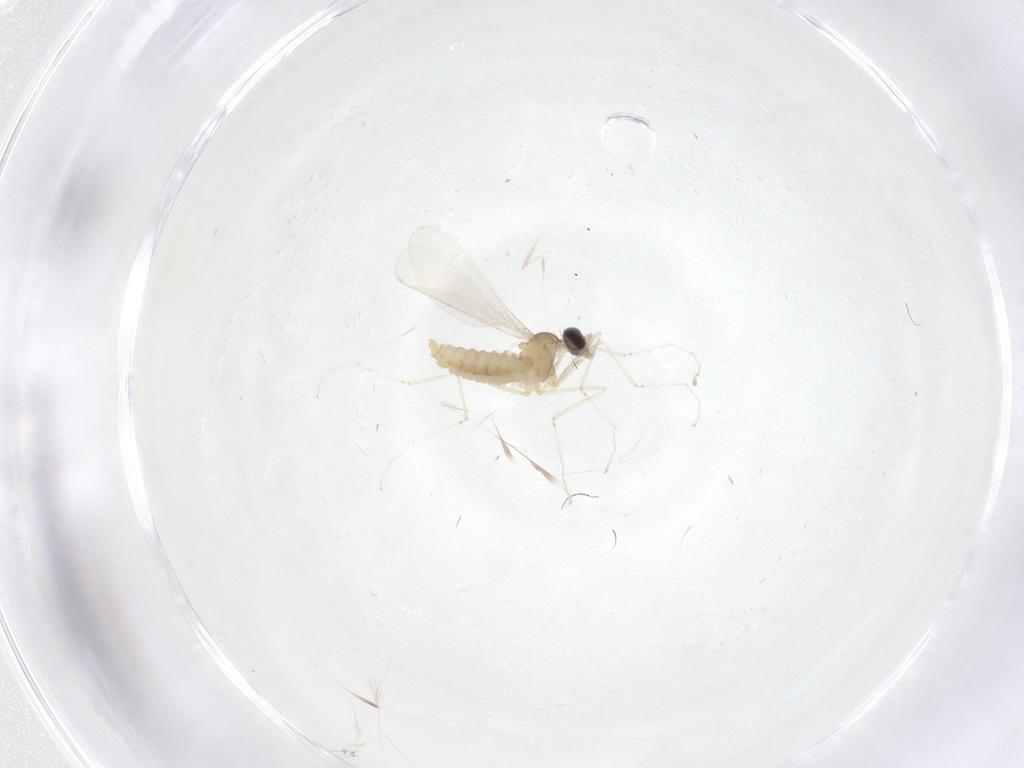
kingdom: Animalia
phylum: Arthropoda
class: Insecta
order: Diptera
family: Cecidomyiidae
